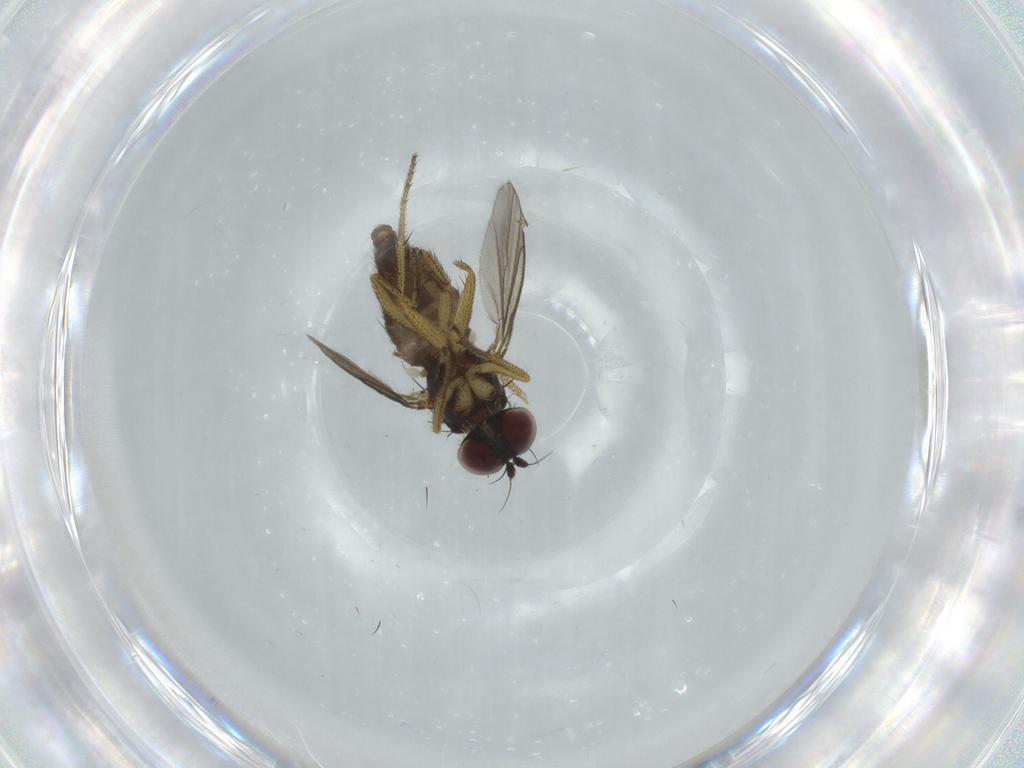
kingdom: Animalia
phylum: Arthropoda
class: Insecta
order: Diptera
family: Dolichopodidae
